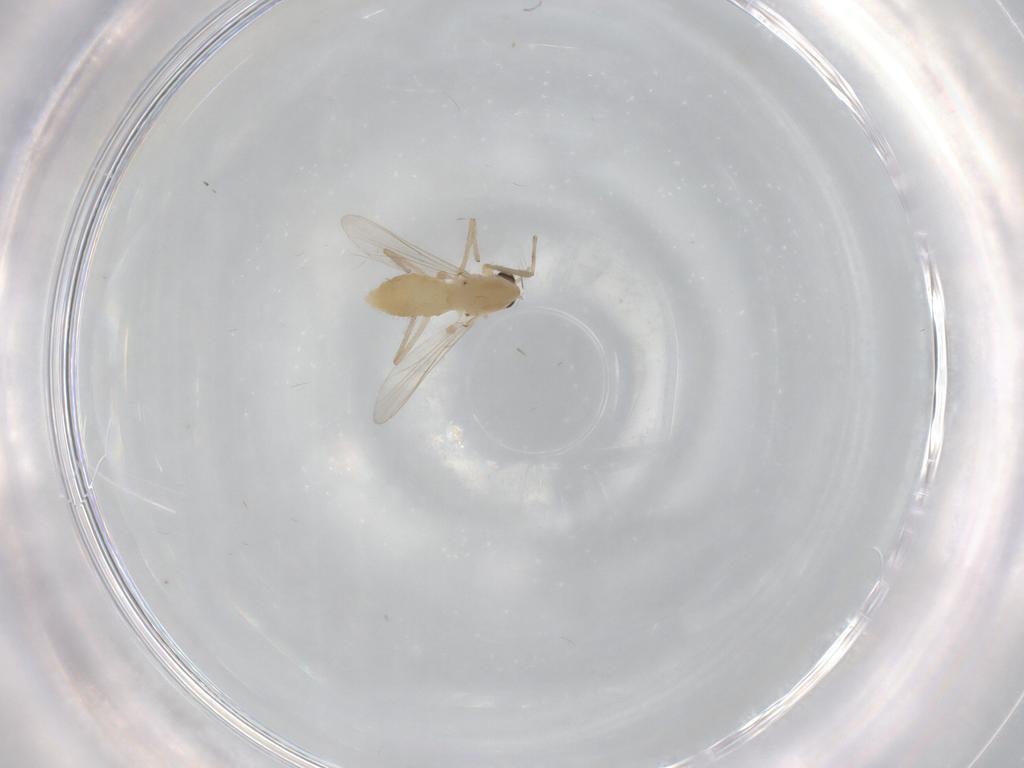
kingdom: Animalia
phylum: Arthropoda
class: Insecta
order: Diptera
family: Chironomidae
